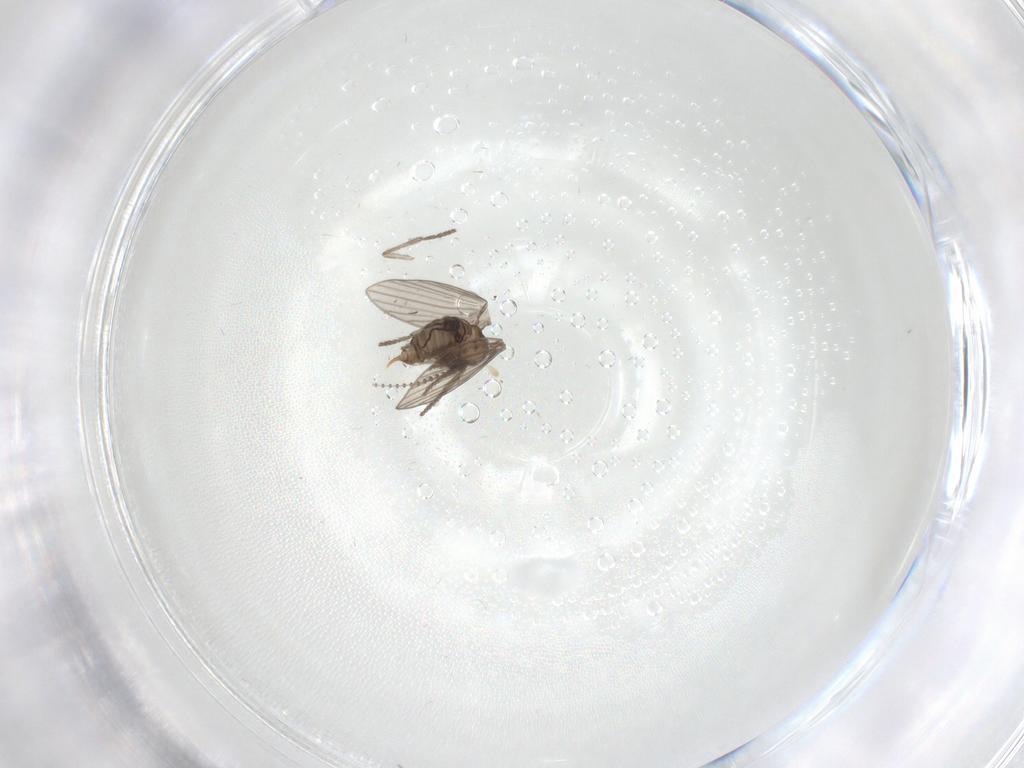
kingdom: Animalia
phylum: Arthropoda
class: Insecta
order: Diptera
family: Psychodidae
